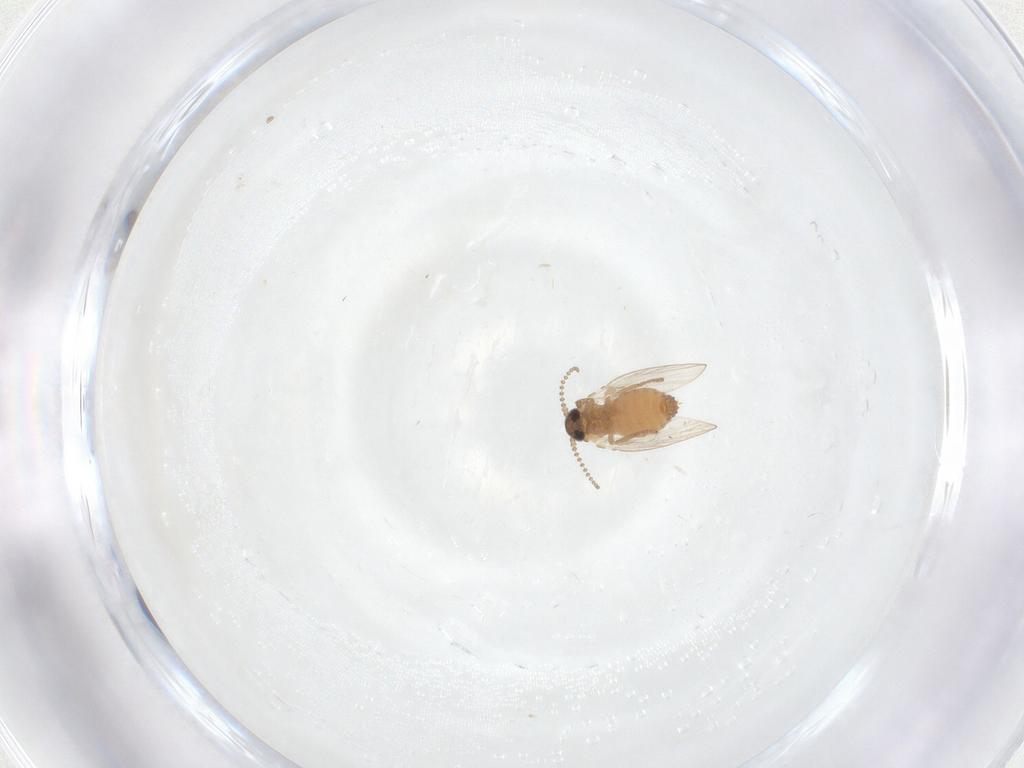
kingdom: Animalia
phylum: Arthropoda
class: Insecta
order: Diptera
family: Psychodidae
